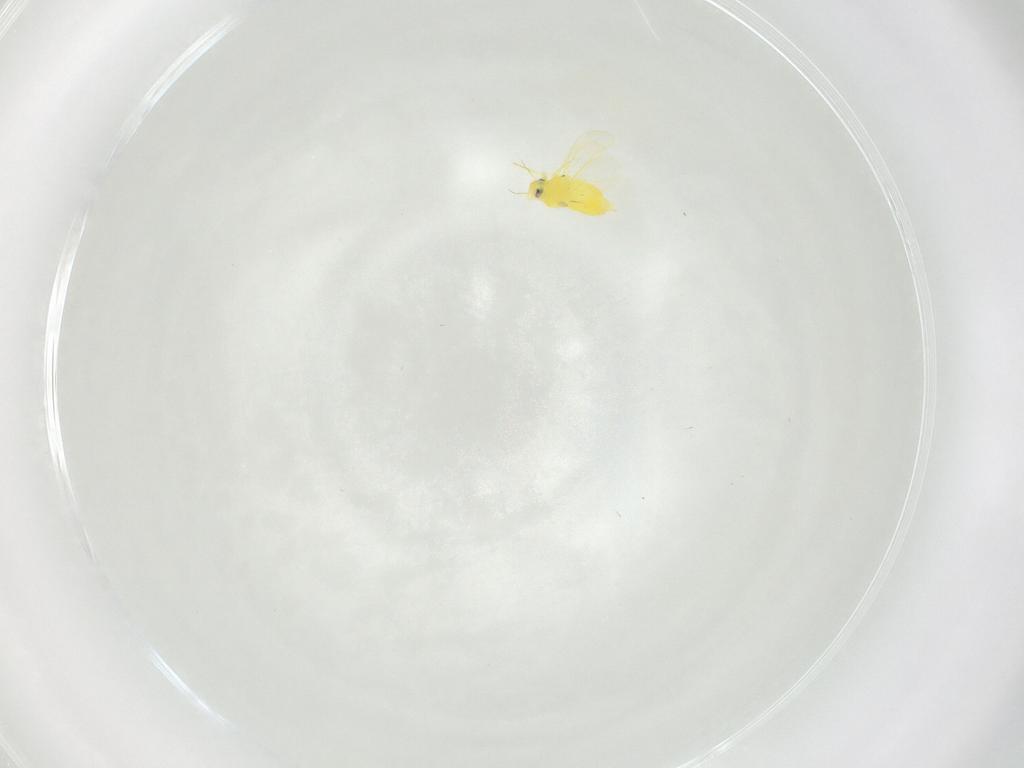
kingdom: Animalia
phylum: Arthropoda
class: Insecta
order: Hemiptera
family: Aleyrodidae
